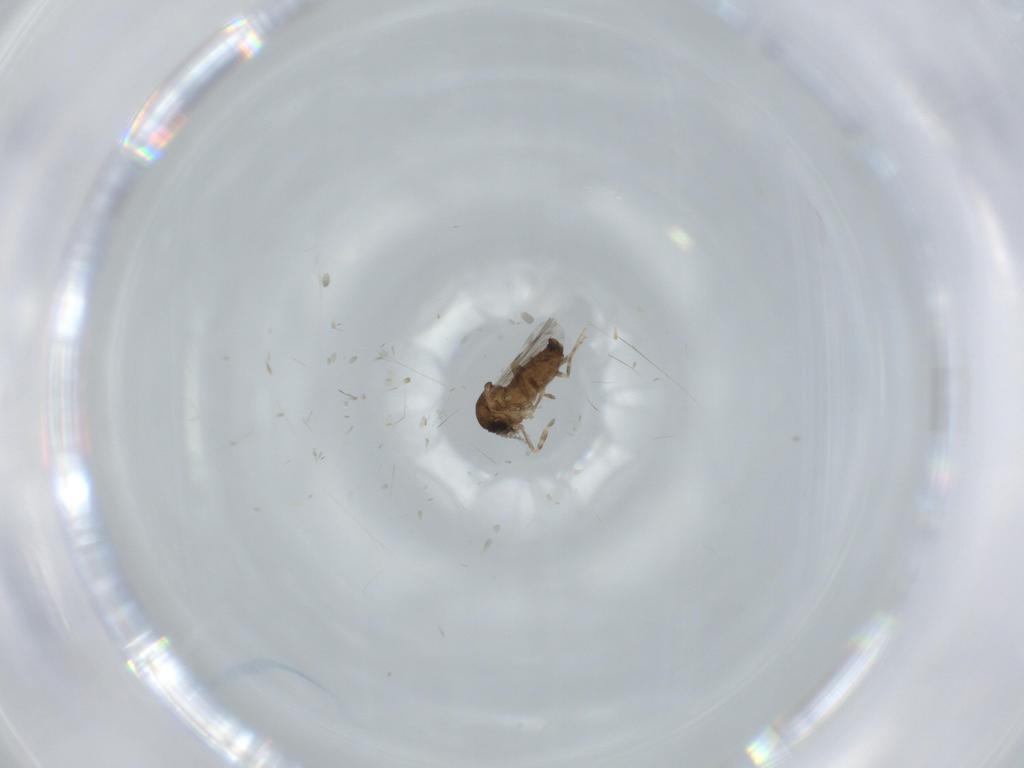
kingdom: Animalia
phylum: Arthropoda
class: Insecta
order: Diptera
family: Ceratopogonidae
